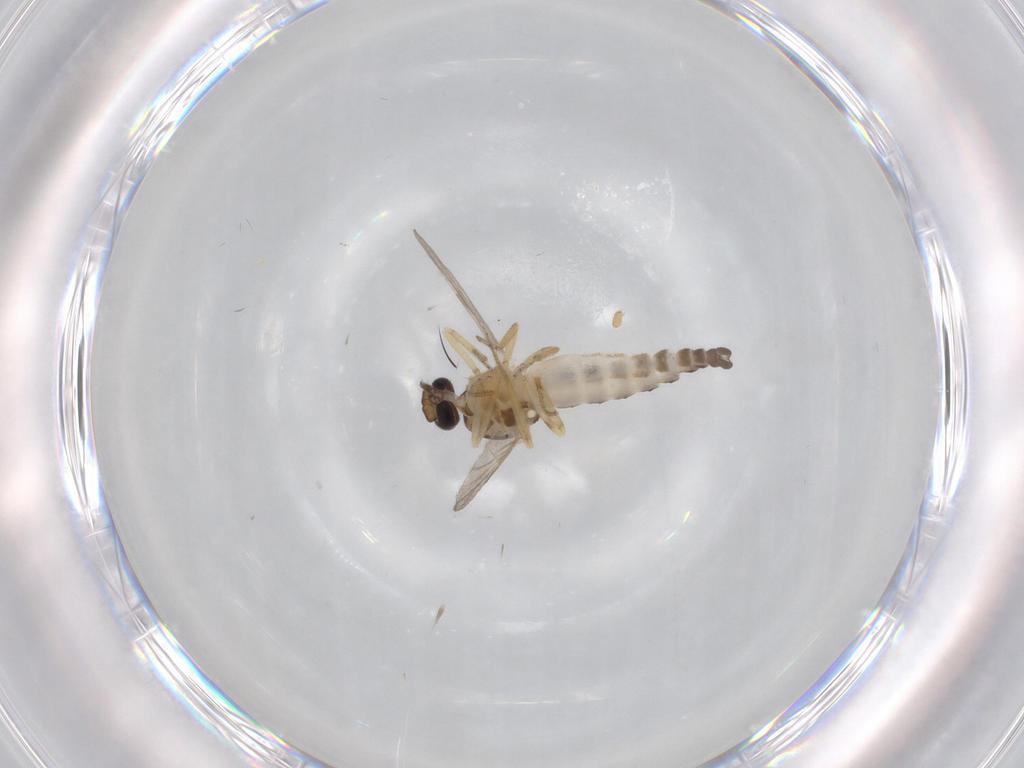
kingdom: Animalia
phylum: Arthropoda
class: Insecta
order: Diptera
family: Cecidomyiidae
